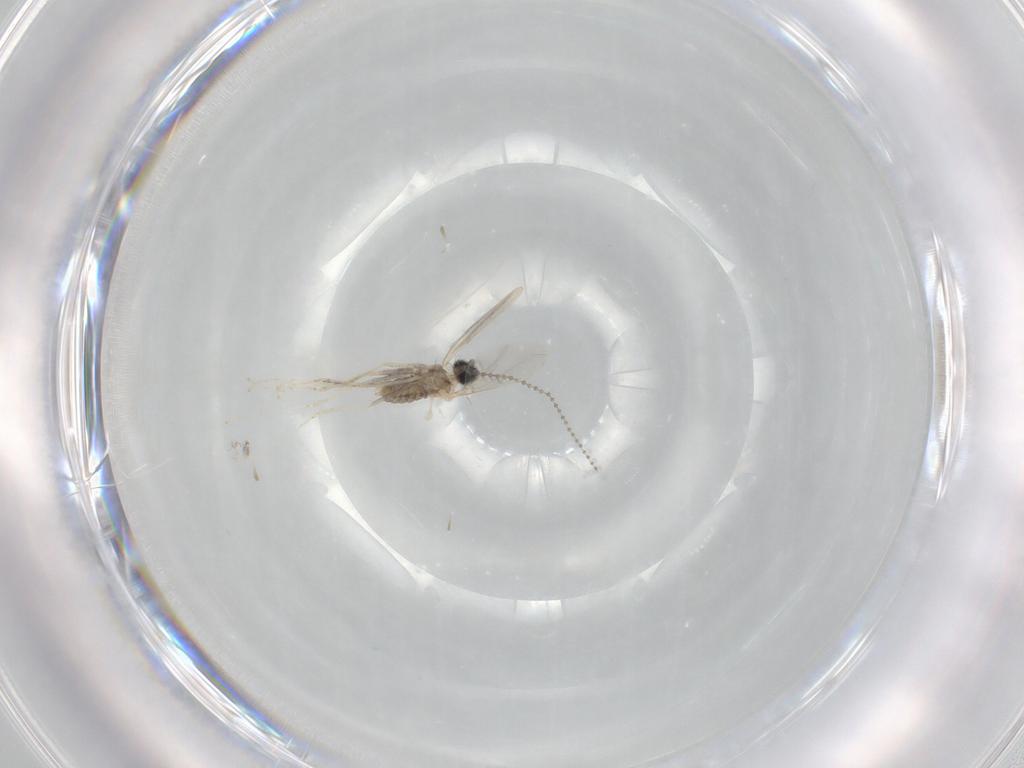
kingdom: Animalia
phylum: Arthropoda
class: Insecta
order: Diptera
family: Cecidomyiidae
